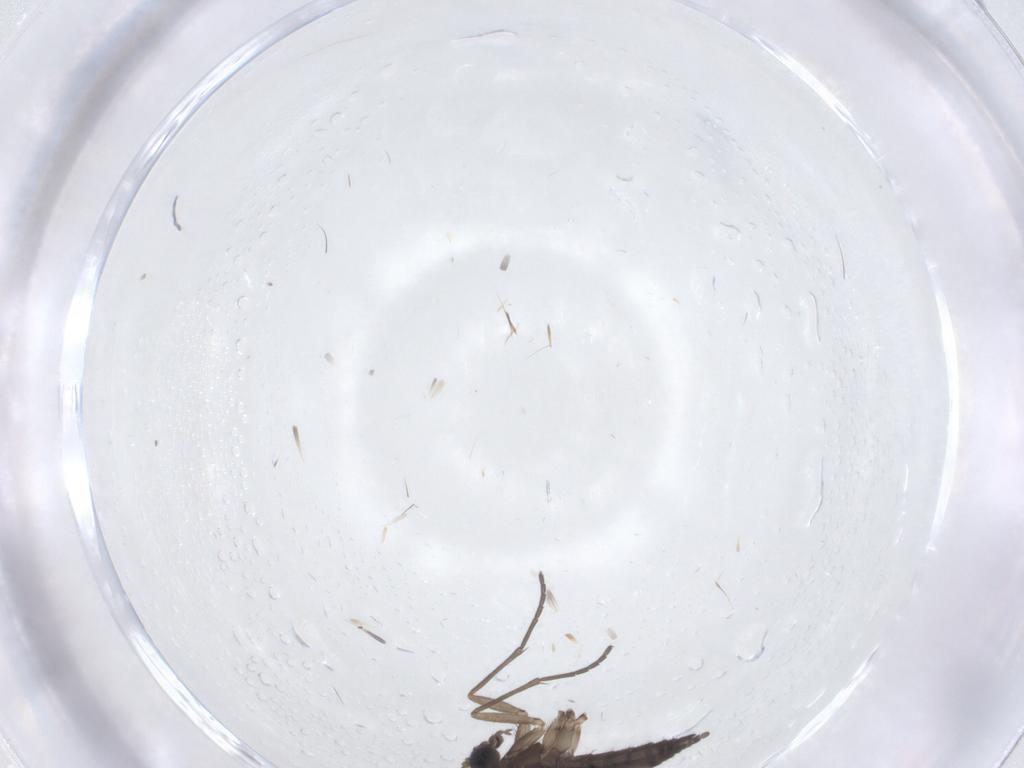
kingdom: Animalia
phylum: Arthropoda
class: Insecta
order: Diptera
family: Sciaridae
